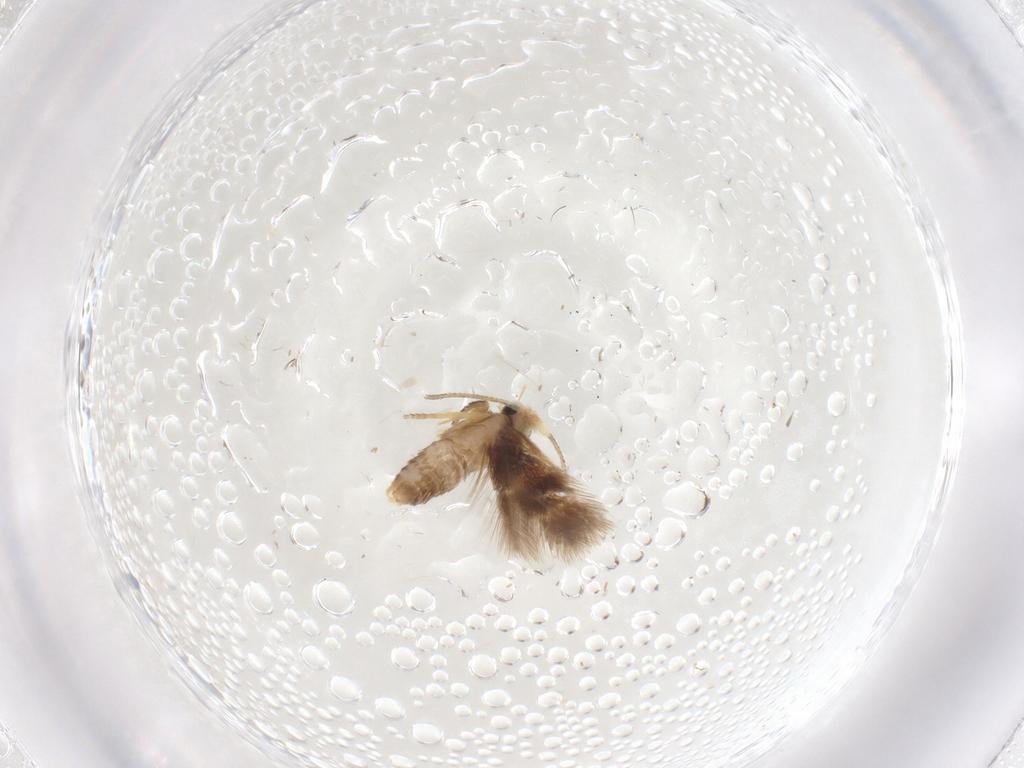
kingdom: Animalia
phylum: Arthropoda
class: Insecta
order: Lepidoptera
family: Nepticulidae
